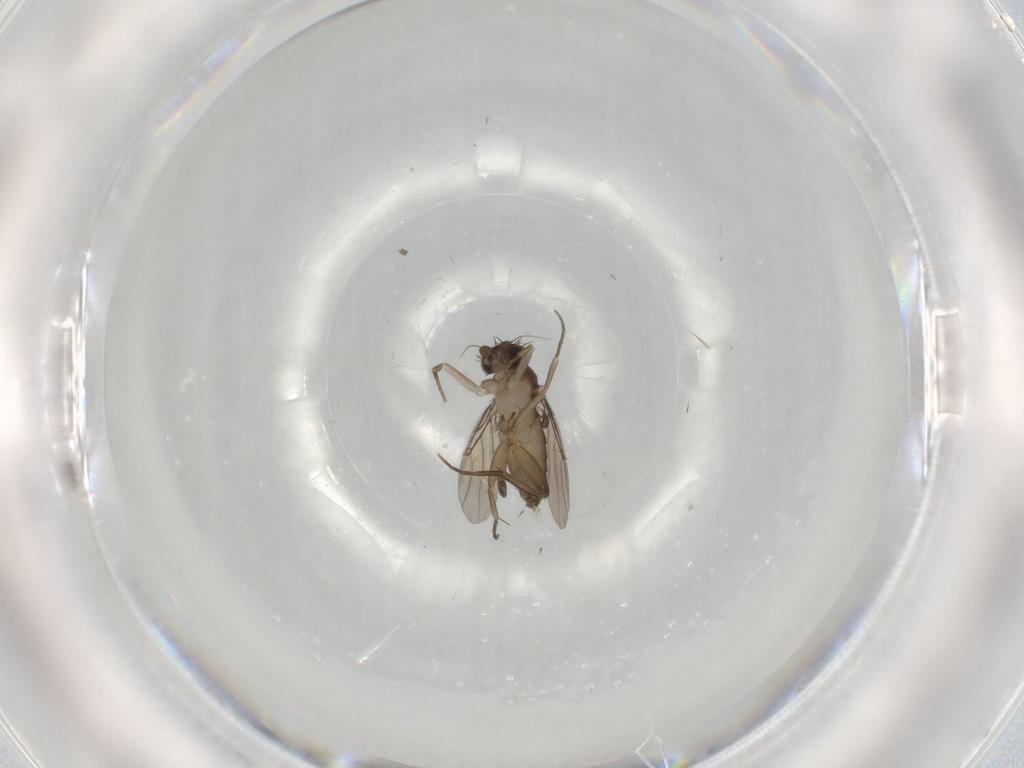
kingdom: Animalia
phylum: Arthropoda
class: Insecta
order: Diptera
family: Phoridae
